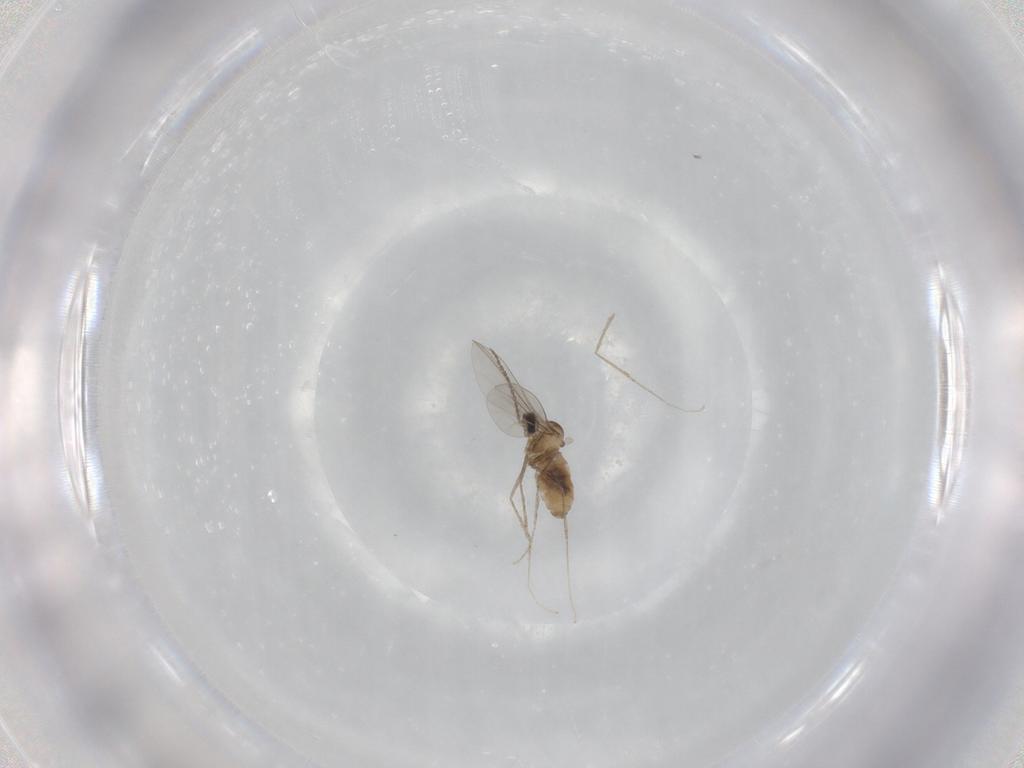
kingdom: Animalia
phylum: Arthropoda
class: Insecta
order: Diptera
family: Cecidomyiidae
